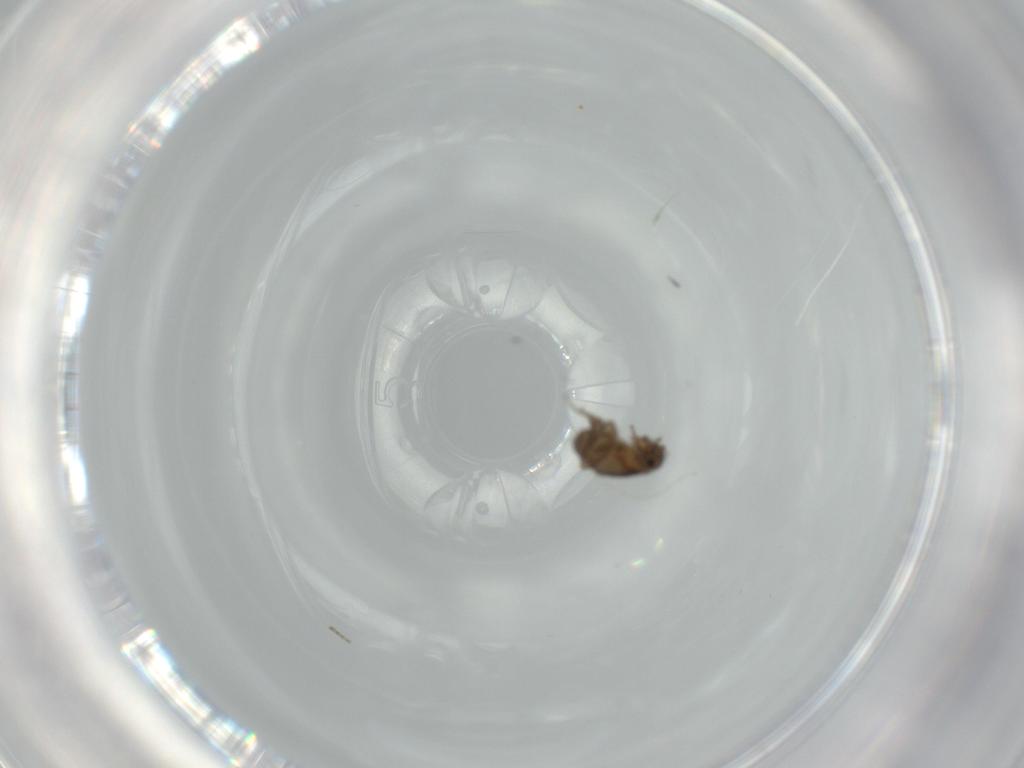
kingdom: Animalia
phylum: Arthropoda
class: Insecta
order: Diptera
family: Phoridae
